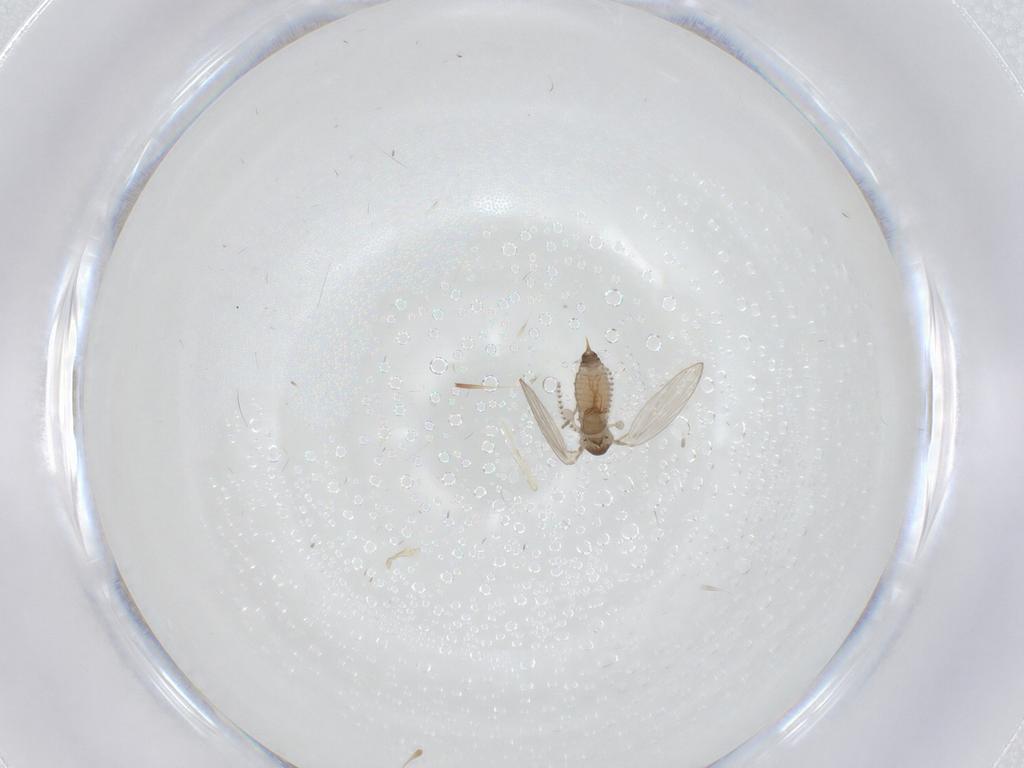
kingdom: Animalia
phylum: Arthropoda
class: Insecta
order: Diptera
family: Psychodidae
